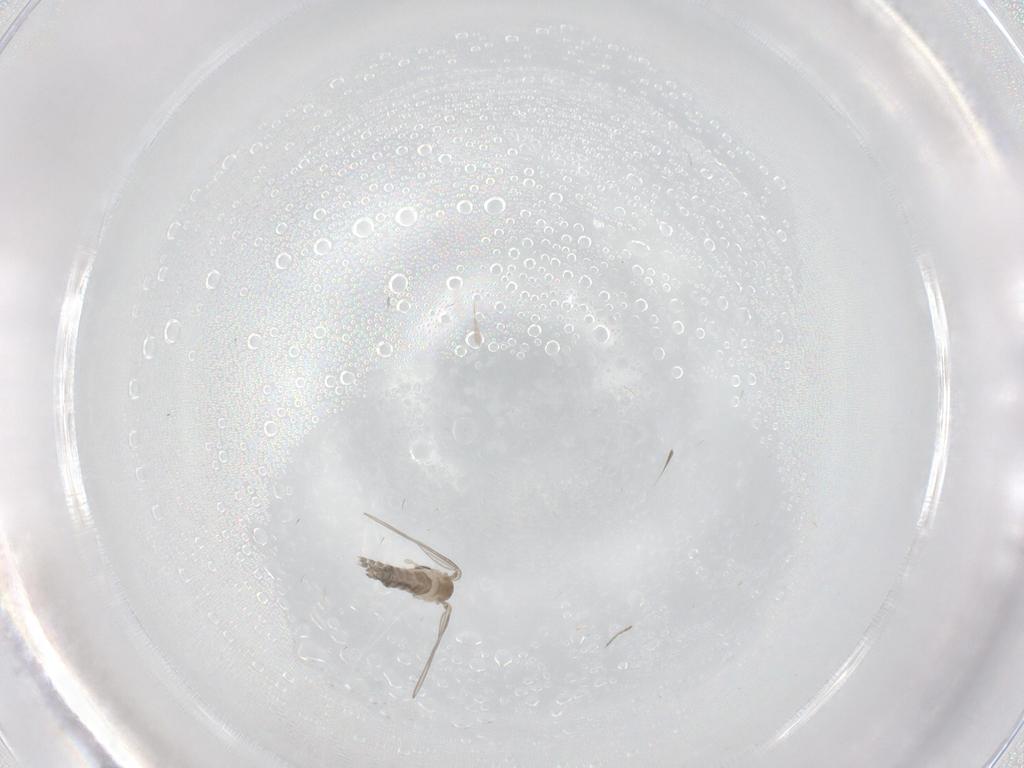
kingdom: Animalia
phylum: Arthropoda
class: Insecta
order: Diptera
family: Cecidomyiidae
